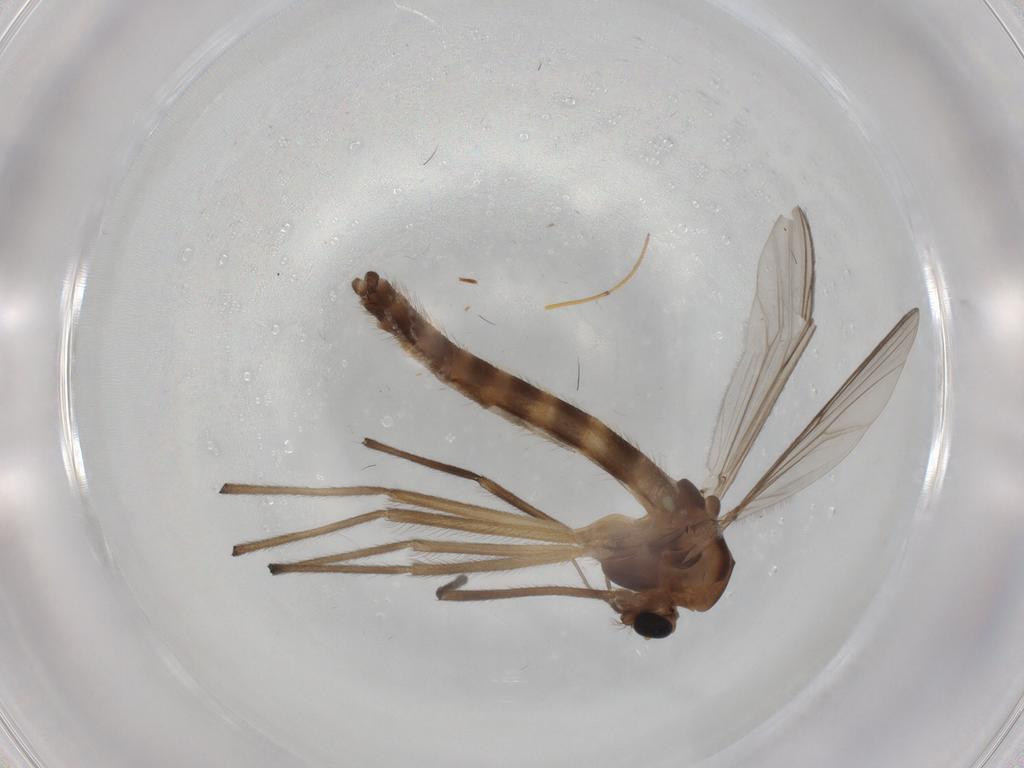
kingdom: Animalia
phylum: Arthropoda
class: Insecta
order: Diptera
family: Chironomidae
